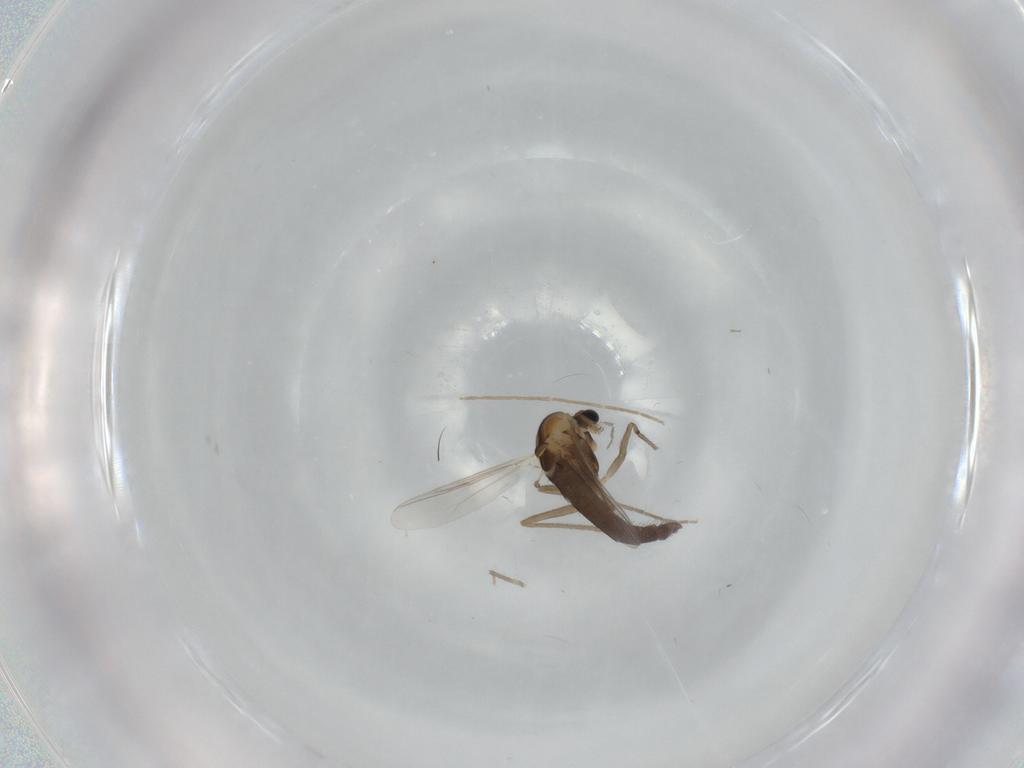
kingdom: Animalia
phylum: Arthropoda
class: Insecta
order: Diptera
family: Chironomidae
